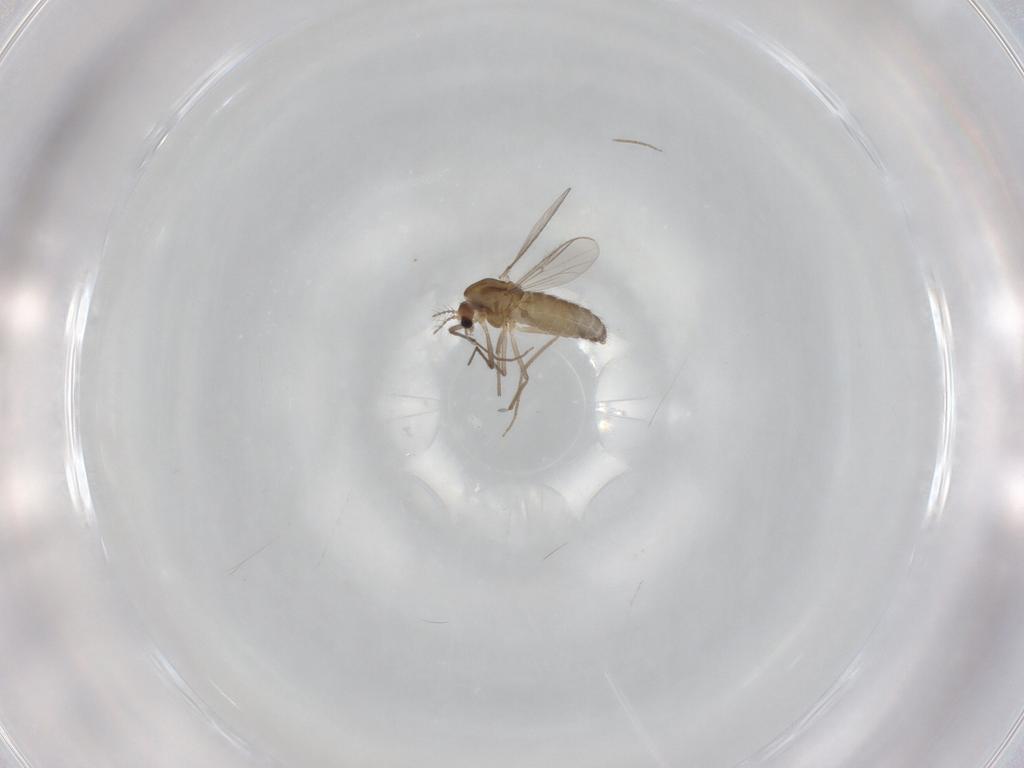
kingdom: Animalia
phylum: Arthropoda
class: Insecta
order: Diptera
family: Chironomidae
